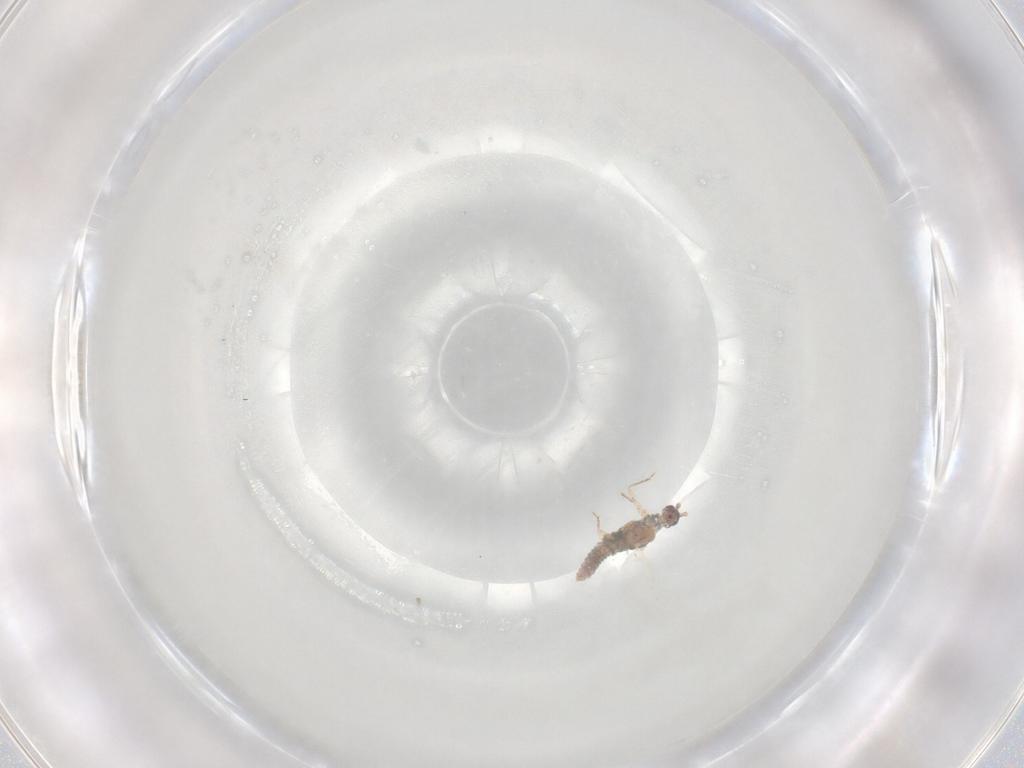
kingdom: Animalia
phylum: Arthropoda
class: Insecta
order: Hemiptera
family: Pseudococcidae
